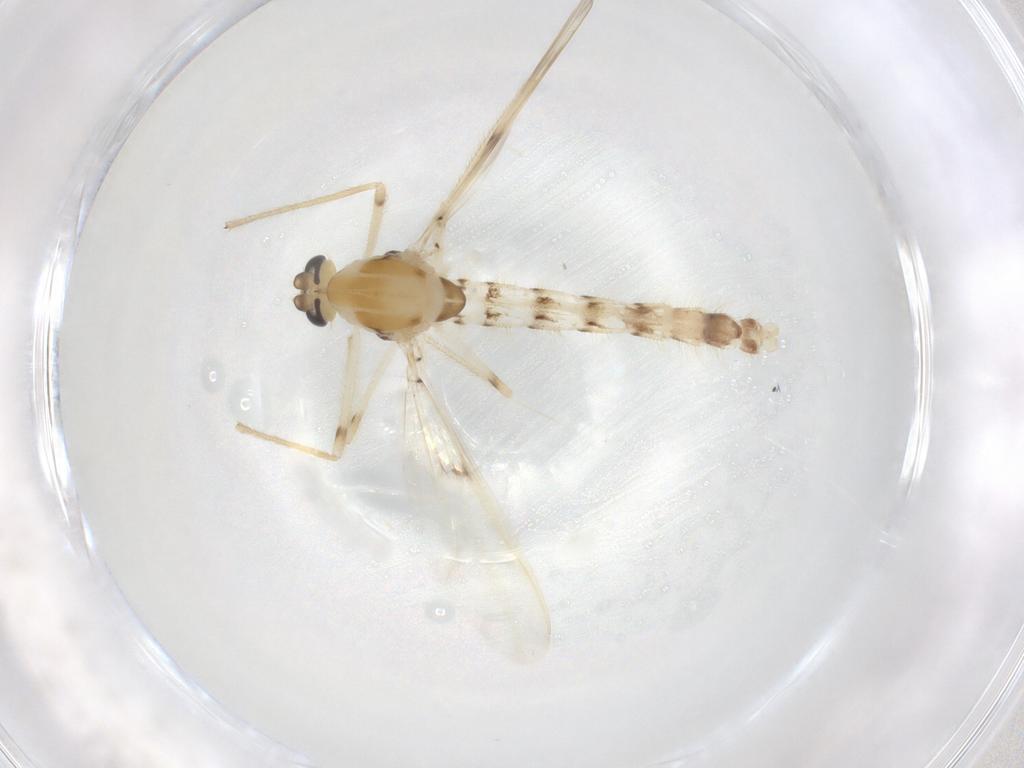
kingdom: Animalia
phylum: Arthropoda
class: Insecta
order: Diptera
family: Chironomidae
